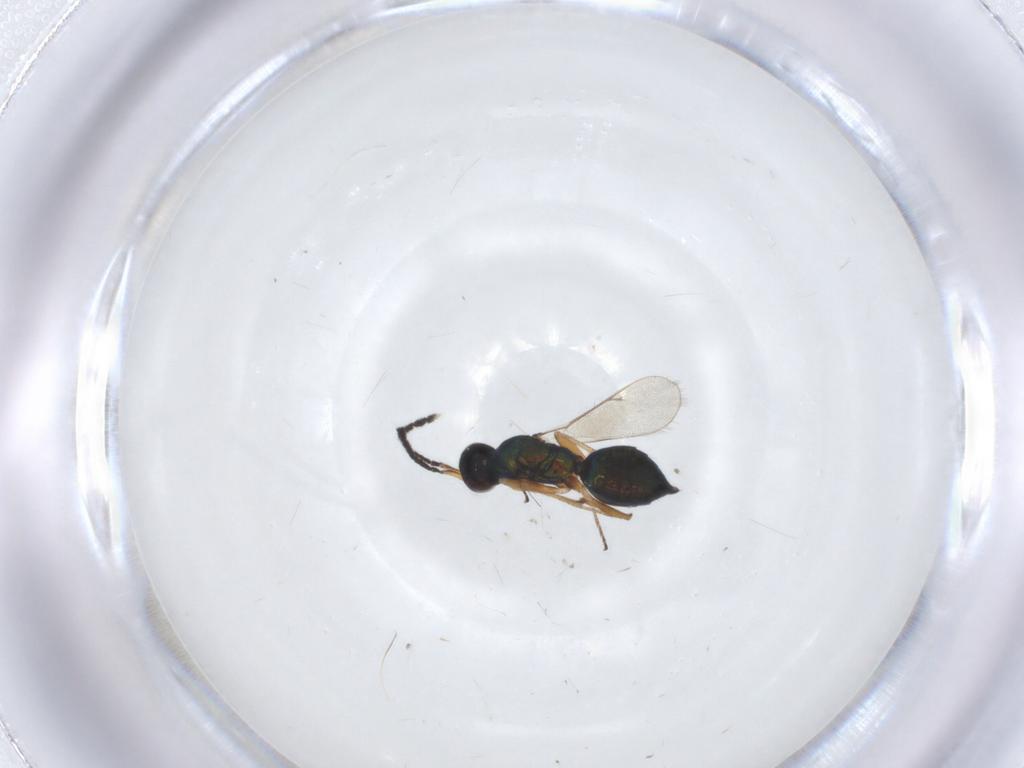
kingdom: Animalia
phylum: Arthropoda
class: Insecta
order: Hymenoptera
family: Eulophidae
